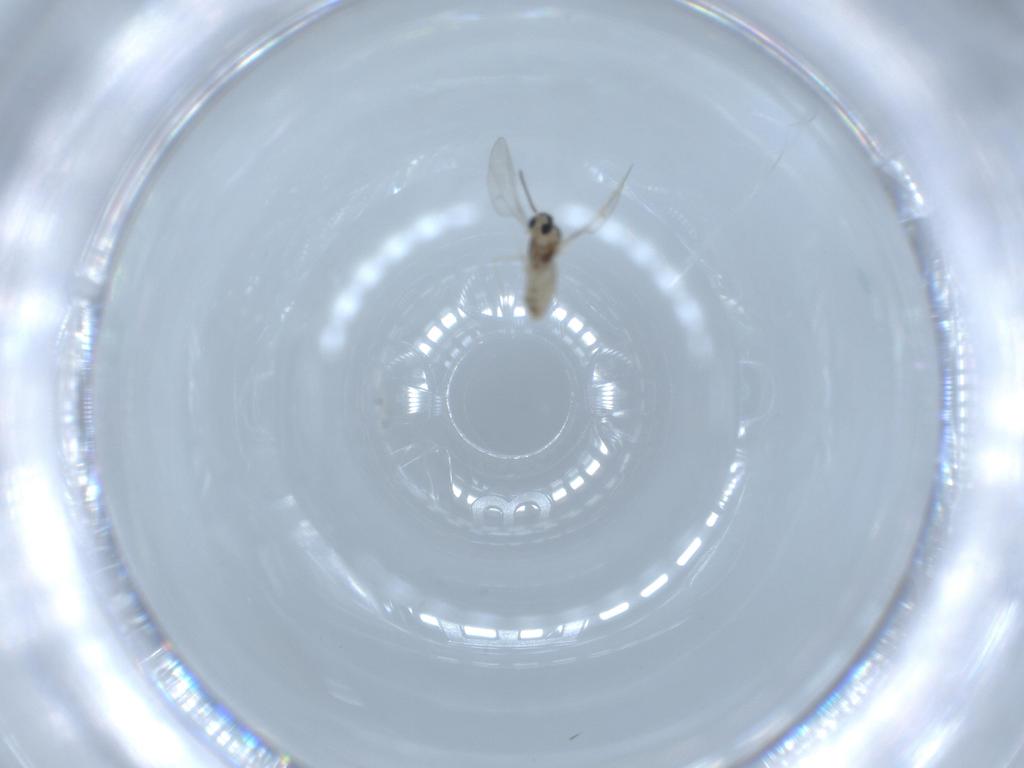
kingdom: Animalia
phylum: Arthropoda
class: Insecta
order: Diptera
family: Cecidomyiidae
